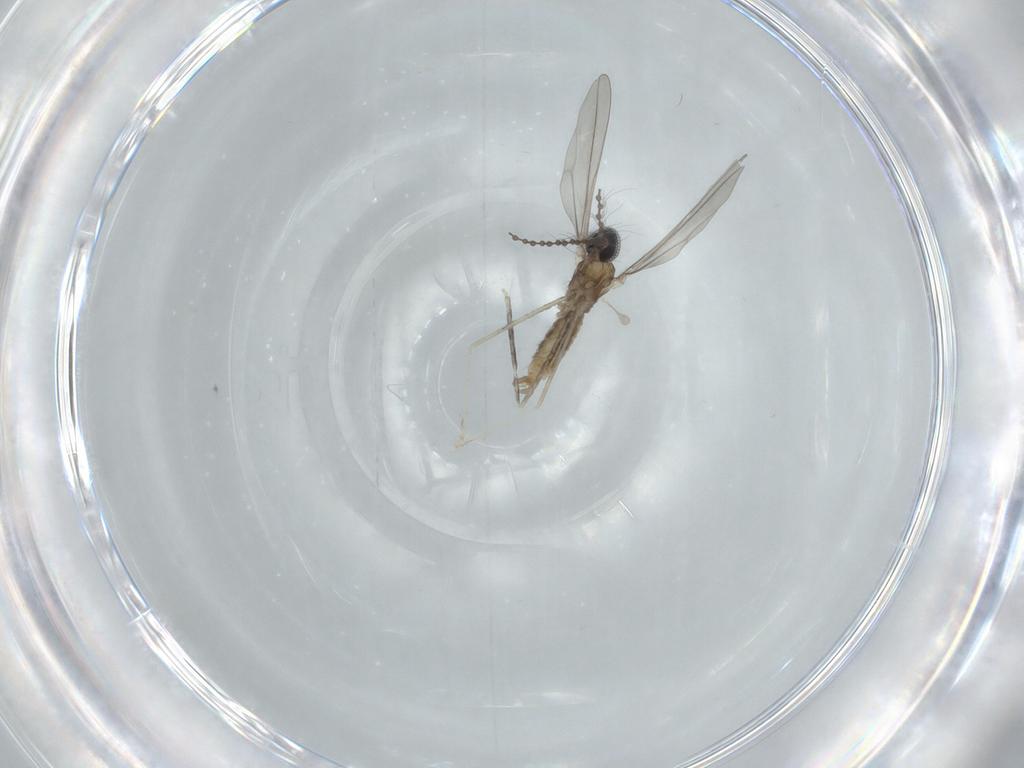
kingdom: Animalia
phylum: Arthropoda
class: Insecta
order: Diptera
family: Cecidomyiidae
